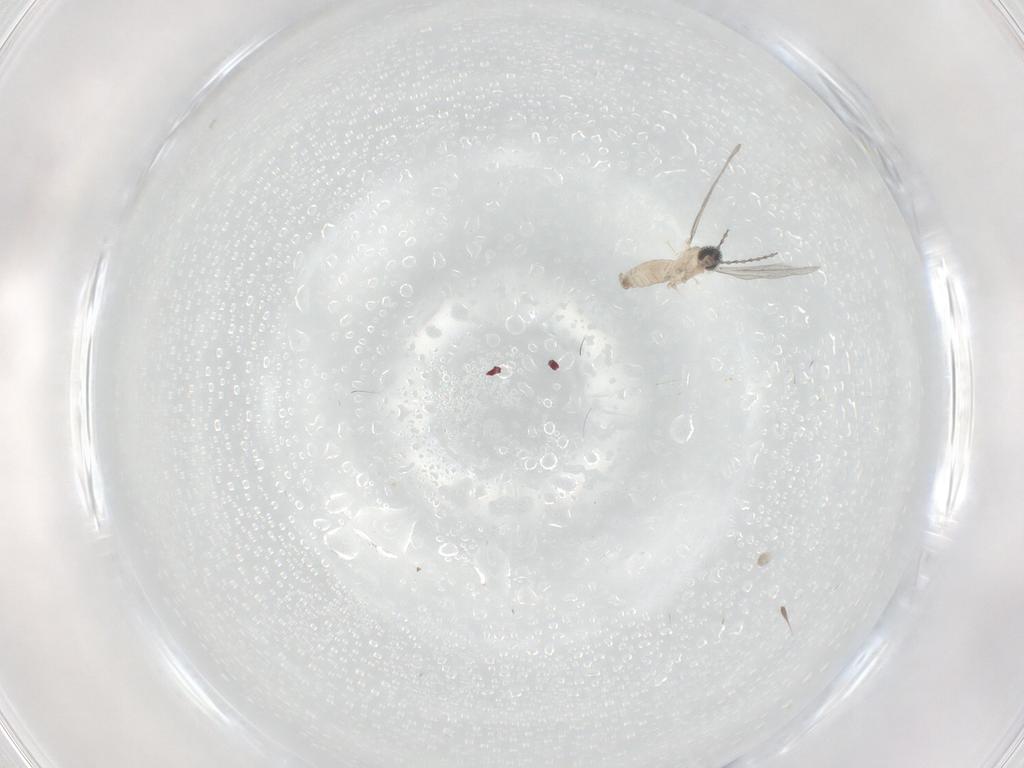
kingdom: Animalia
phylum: Arthropoda
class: Insecta
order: Diptera
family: Cecidomyiidae
